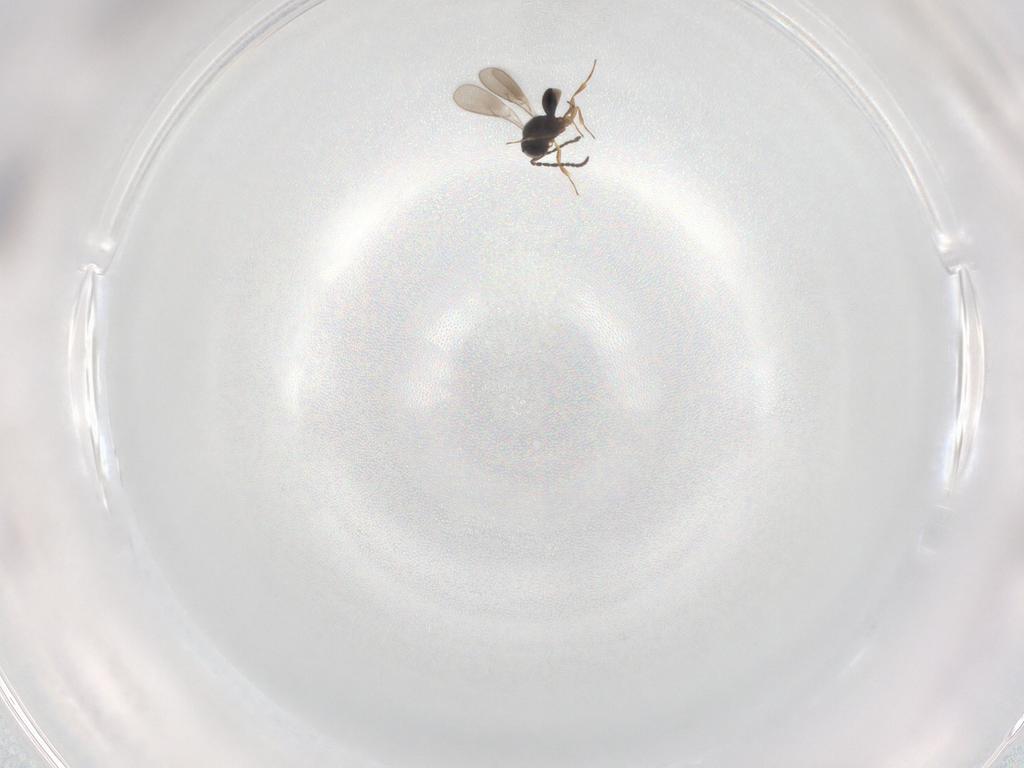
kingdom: Animalia
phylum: Arthropoda
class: Insecta
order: Hymenoptera
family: Scelionidae
